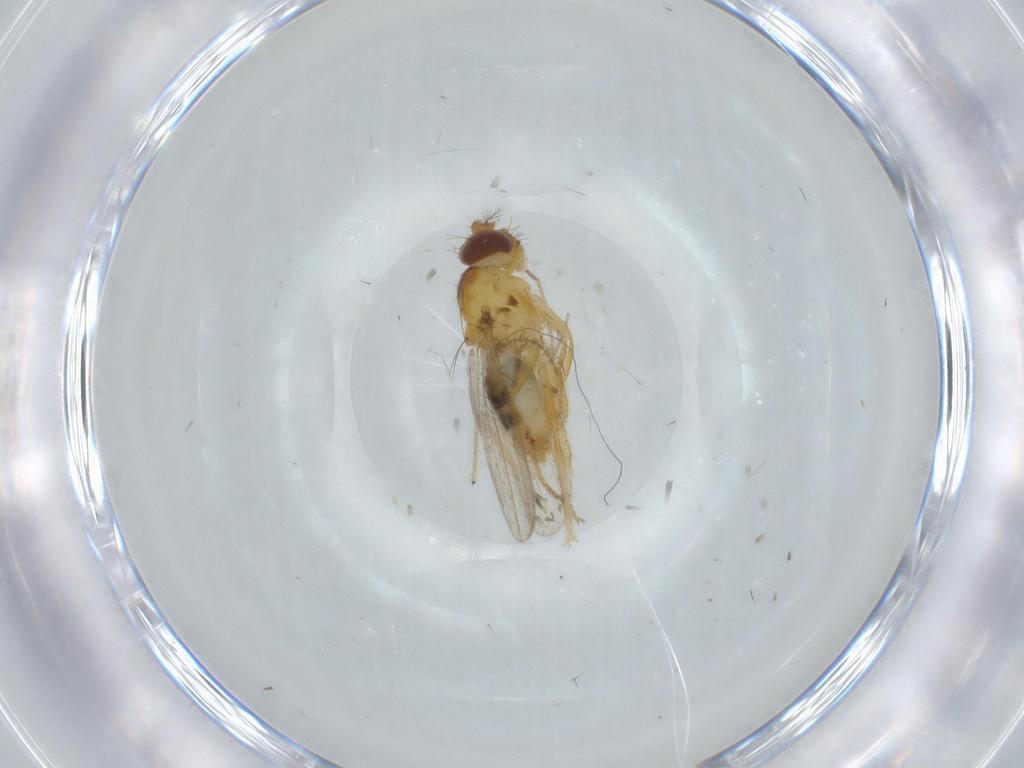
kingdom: Animalia
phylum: Arthropoda
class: Insecta
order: Diptera
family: Periscelididae
